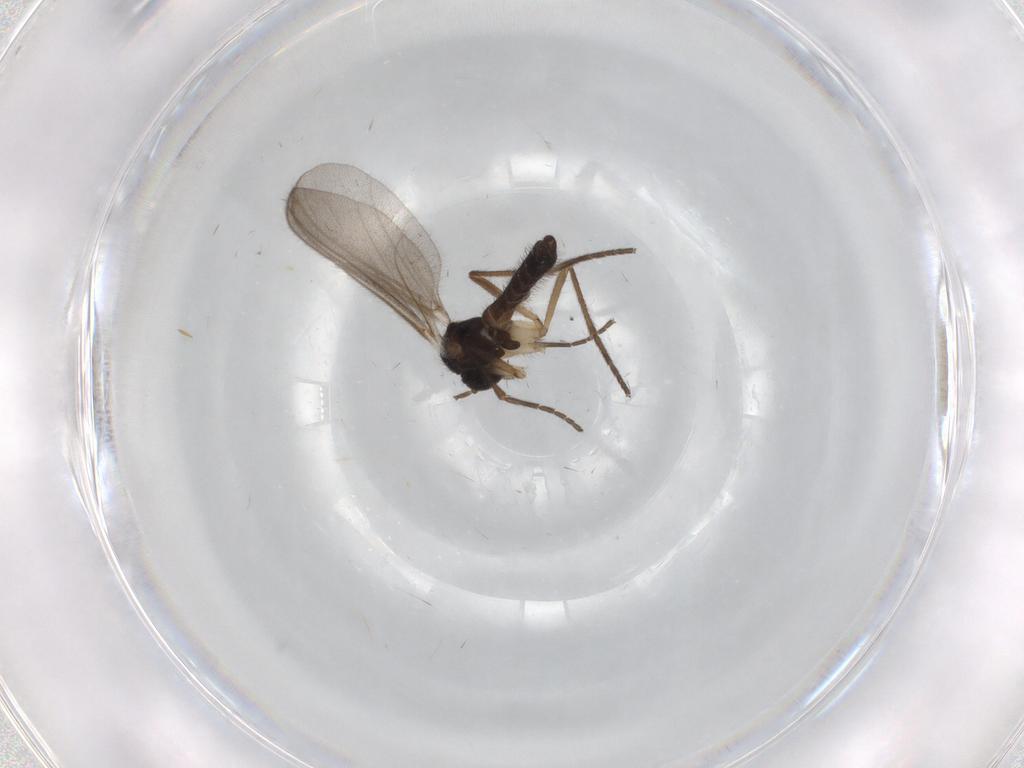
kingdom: Animalia
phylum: Arthropoda
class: Insecta
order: Diptera
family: Mycetophilidae
